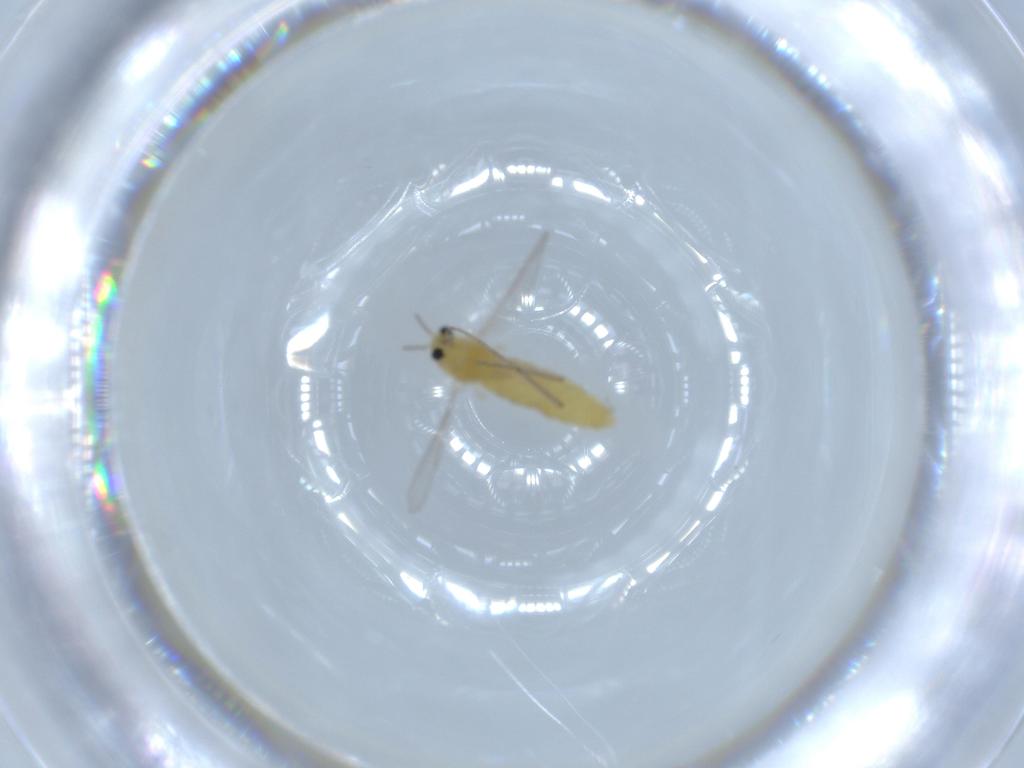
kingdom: Animalia
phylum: Arthropoda
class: Insecta
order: Diptera
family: Chironomidae
